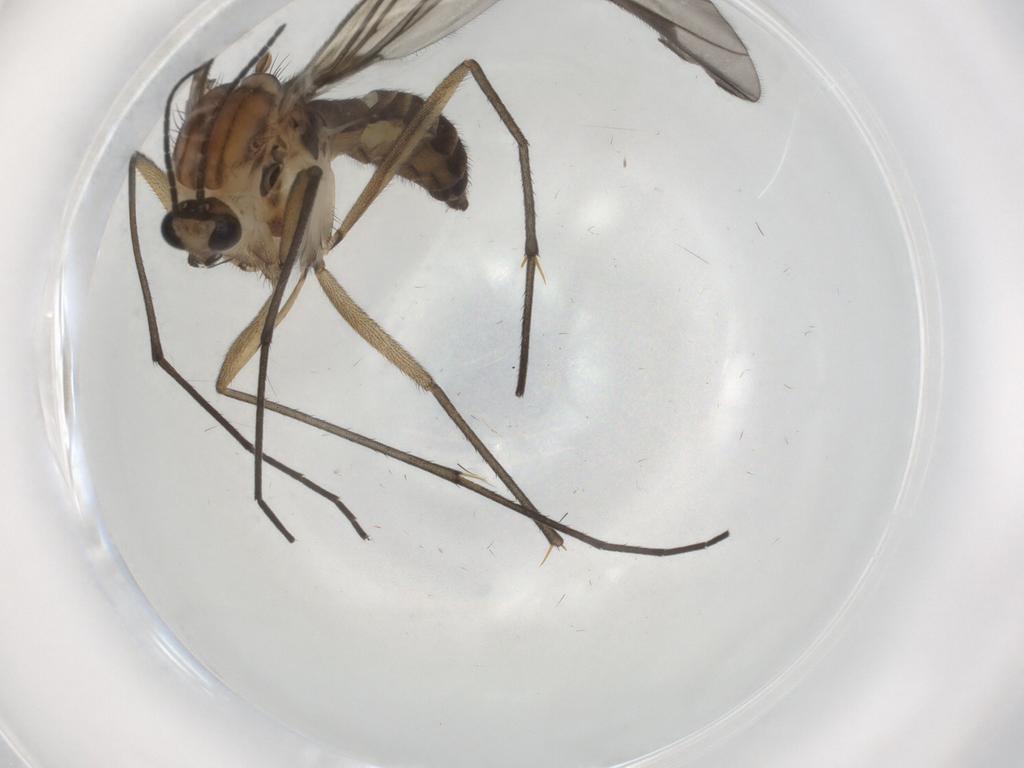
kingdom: Animalia
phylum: Arthropoda
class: Insecta
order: Diptera
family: Sciaridae
